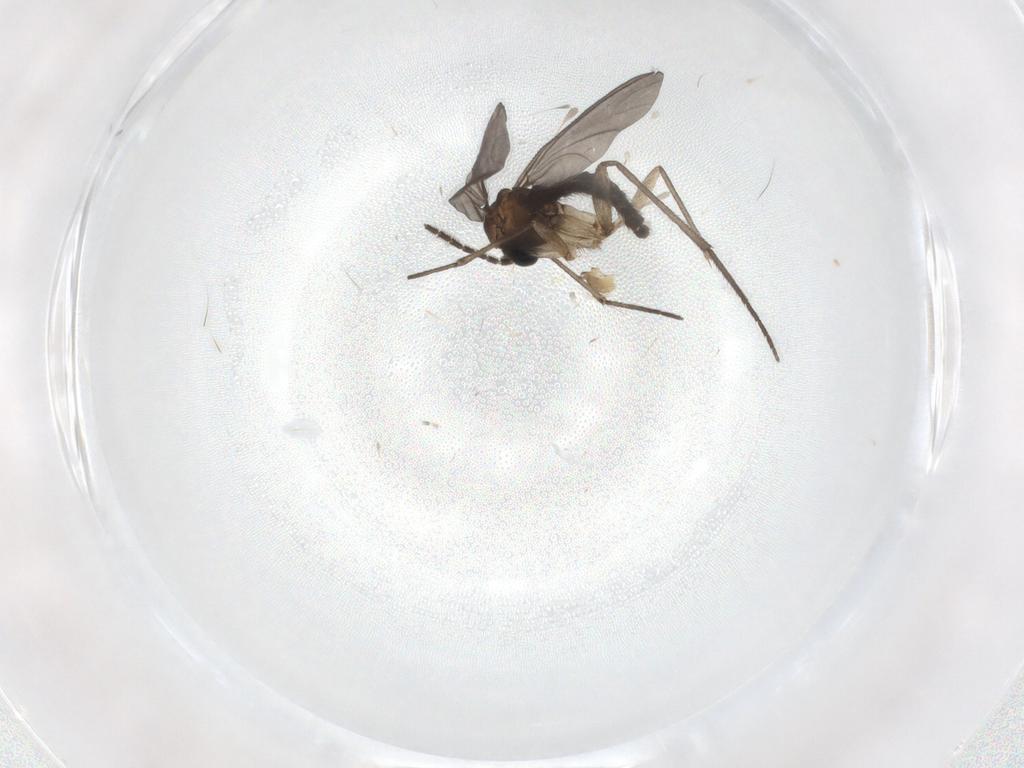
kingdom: Animalia
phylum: Arthropoda
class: Insecta
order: Diptera
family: Sciaridae
